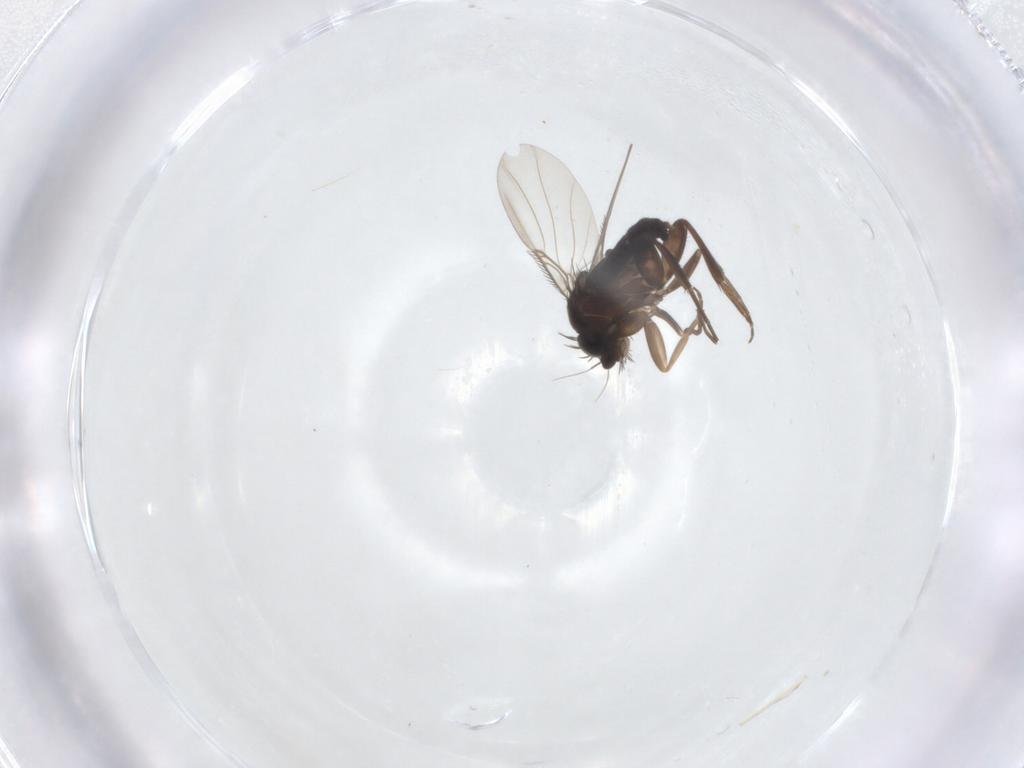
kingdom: Animalia
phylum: Arthropoda
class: Insecta
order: Diptera
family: Phoridae
